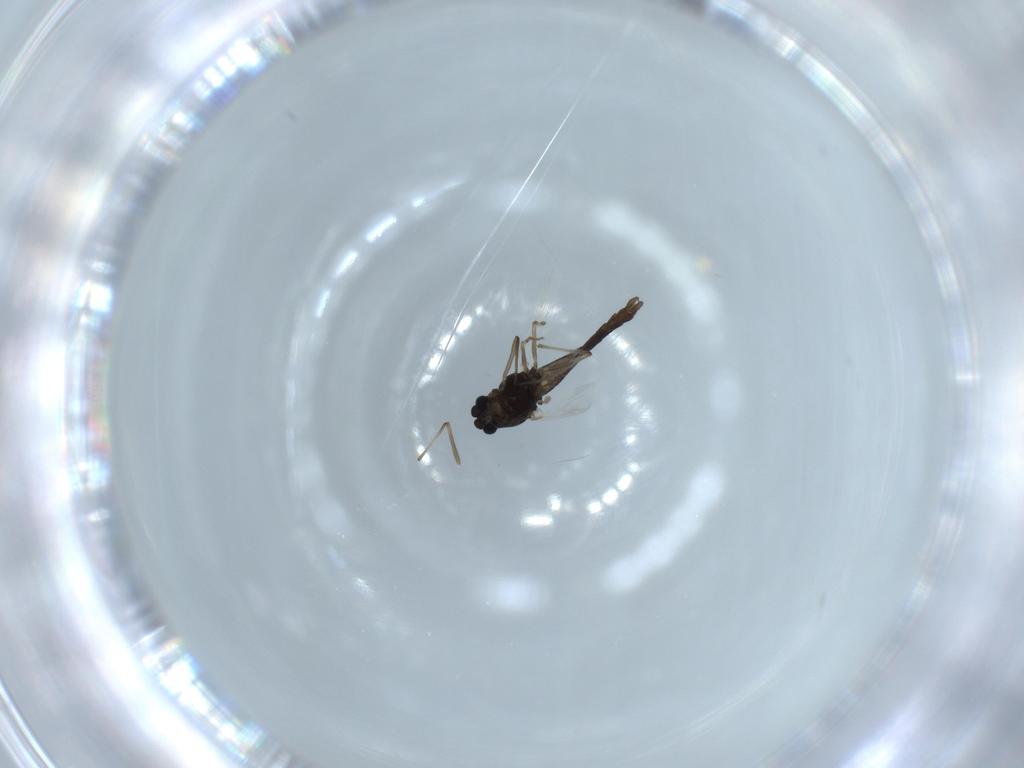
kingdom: Animalia
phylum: Arthropoda
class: Insecta
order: Diptera
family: Chironomidae
